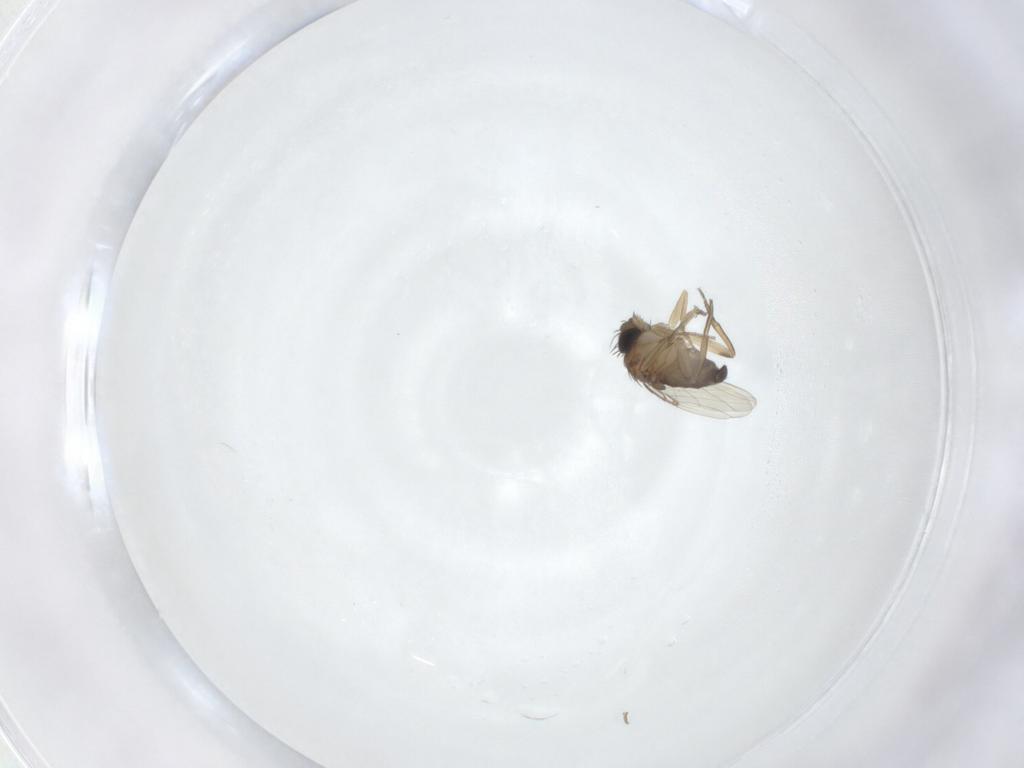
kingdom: Animalia
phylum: Arthropoda
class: Insecta
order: Diptera
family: Phoridae
